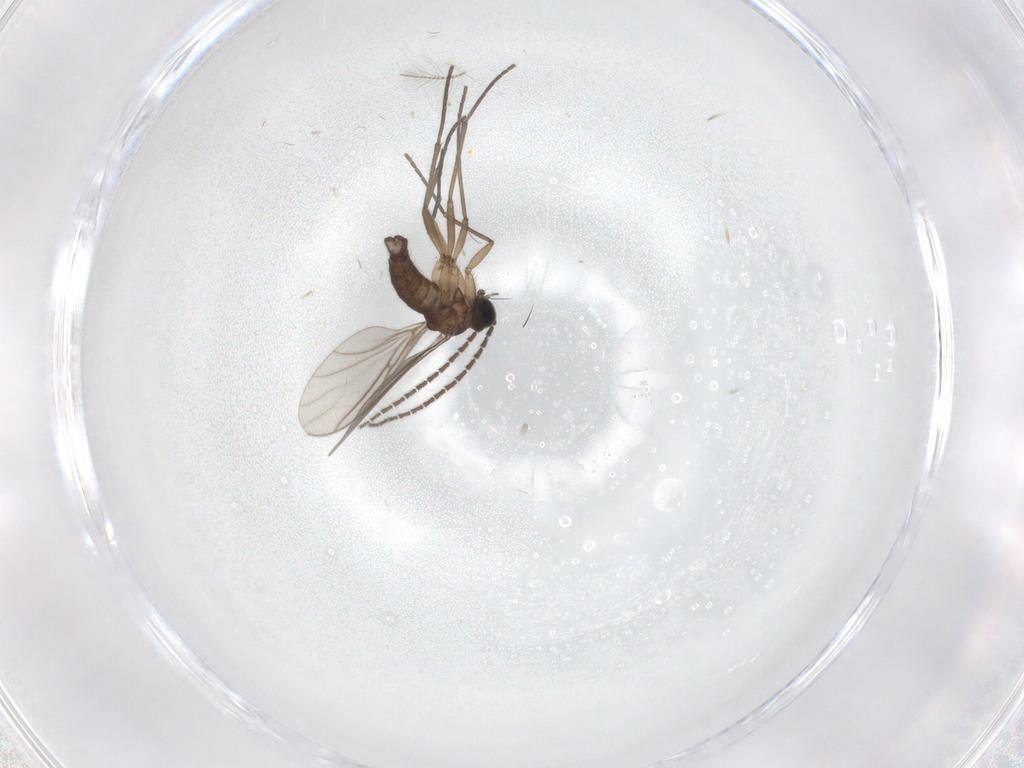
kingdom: Animalia
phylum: Arthropoda
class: Insecta
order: Diptera
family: Chironomidae
